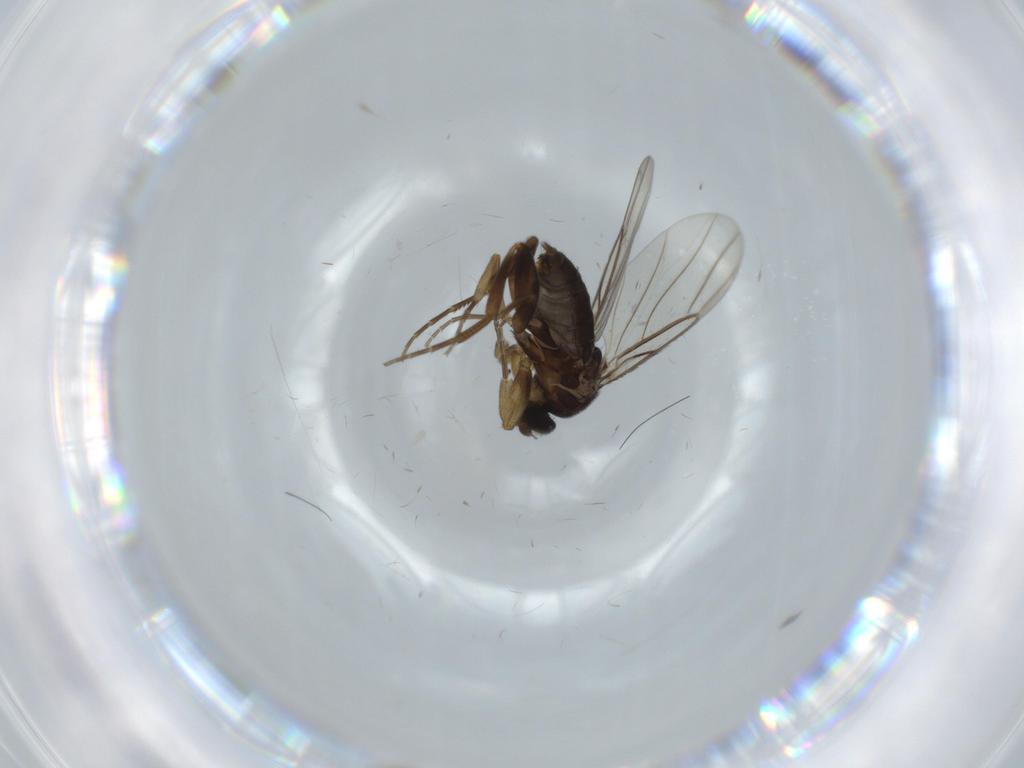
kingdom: Animalia
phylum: Arthropoda
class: Insecta
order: Diptera
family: Phoridae
